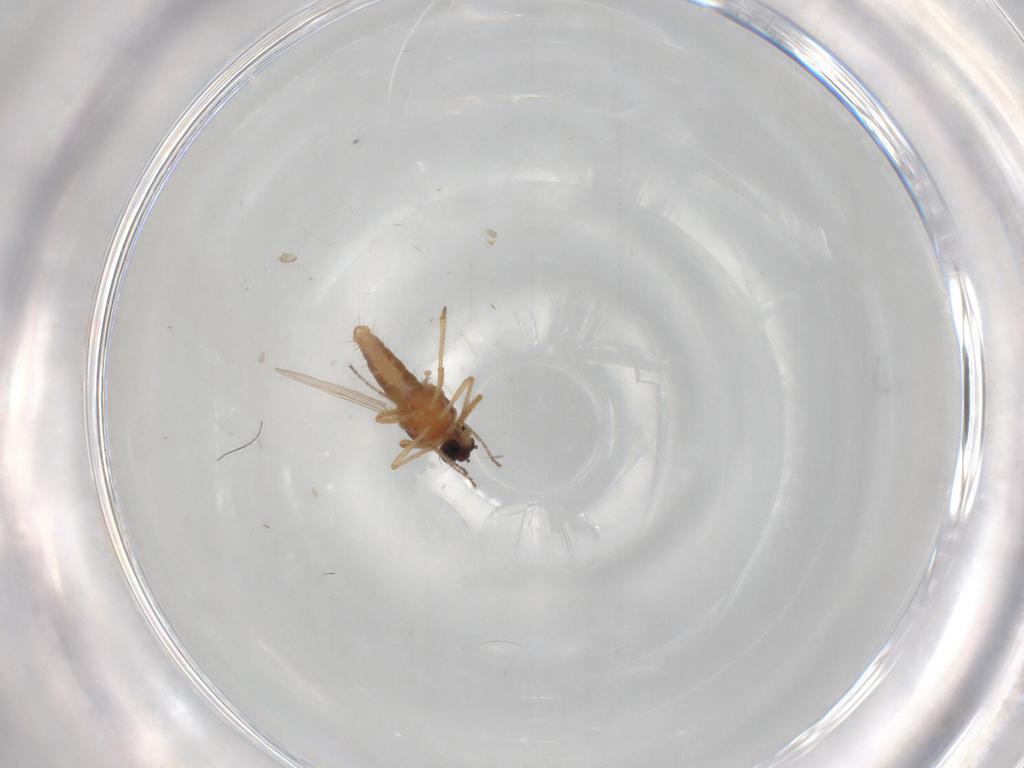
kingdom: Animalia
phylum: Arthropoda
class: Insecta
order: Diptera
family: Ceratopogonidae
